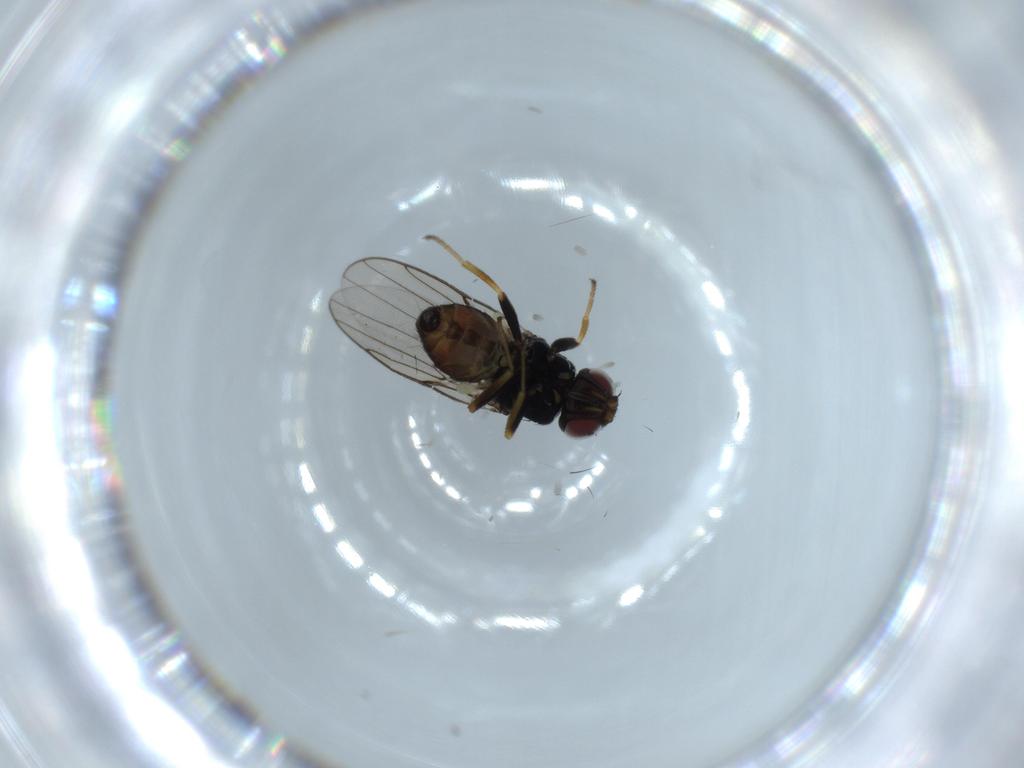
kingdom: Animalia
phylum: Arthropoda
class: Insecta
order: Diptera
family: Chloropidae
